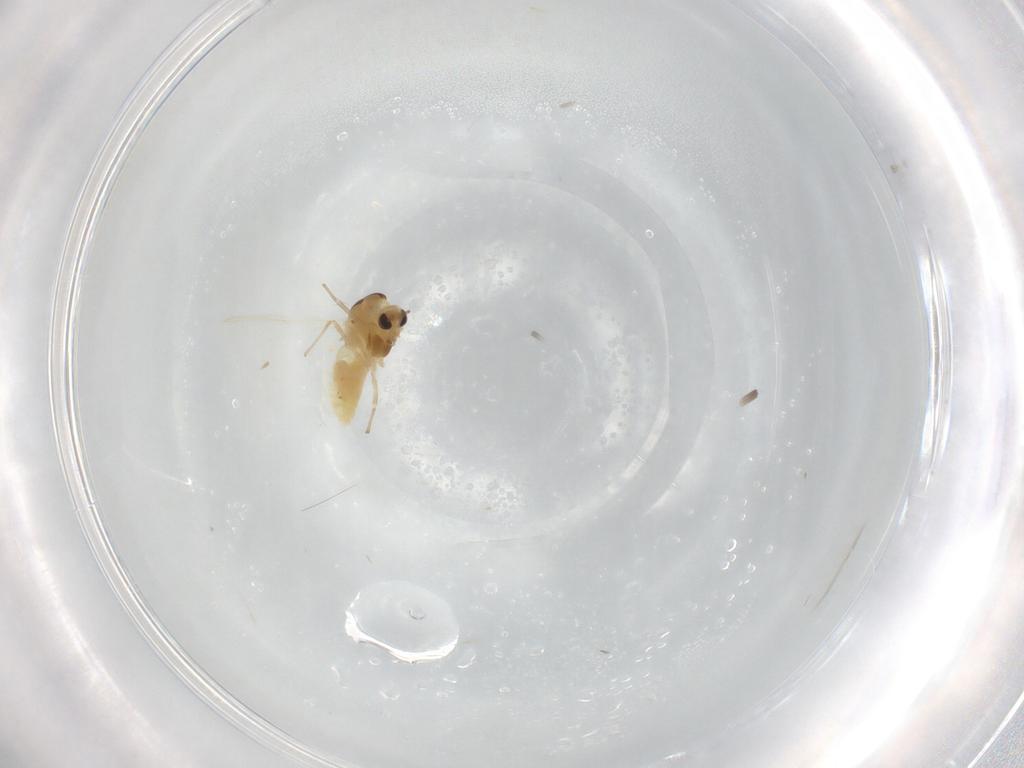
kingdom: Animalia
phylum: Arthropoda
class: Insecta
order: Diptera
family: Chironomidae
